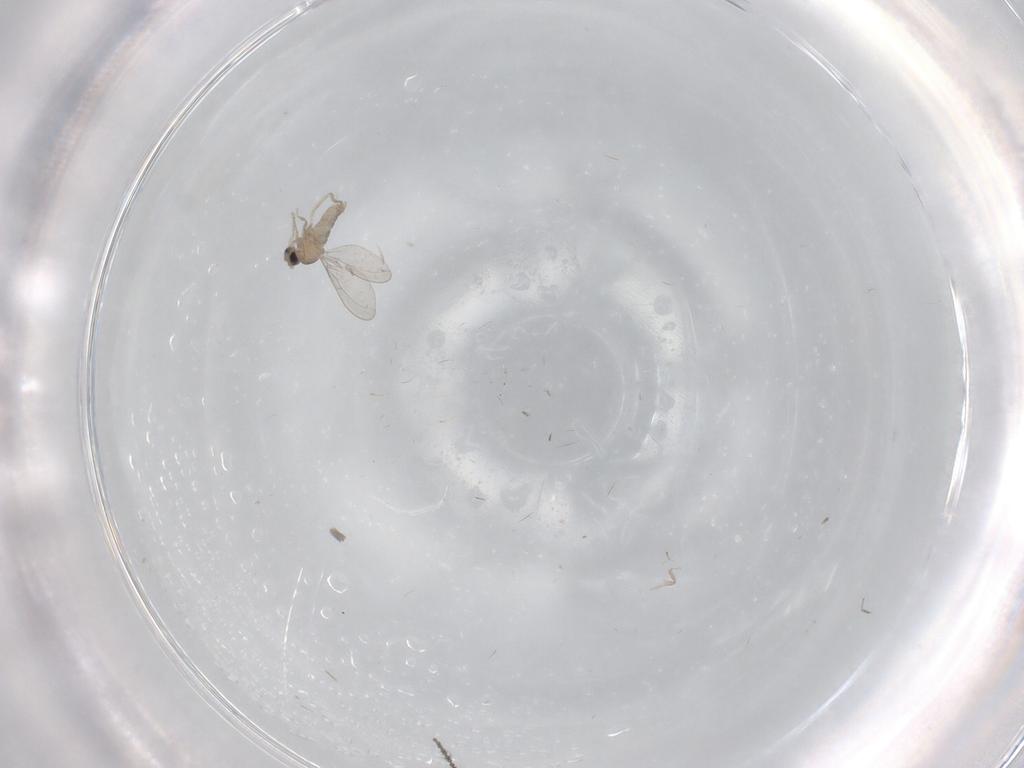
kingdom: Animalia
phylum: Arthropoda
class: Insecta
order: Diptera
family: Cecidomyiidae
